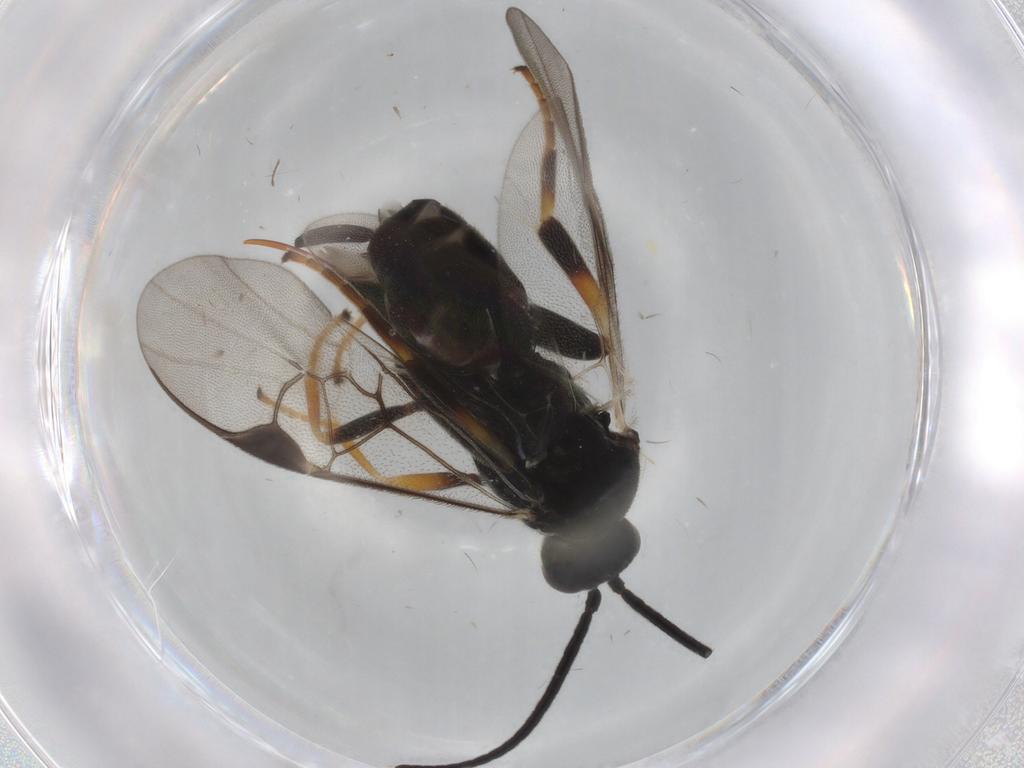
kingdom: Animalia
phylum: Arthropoda
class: Insecta
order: Hymenoptera
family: Braconidae
